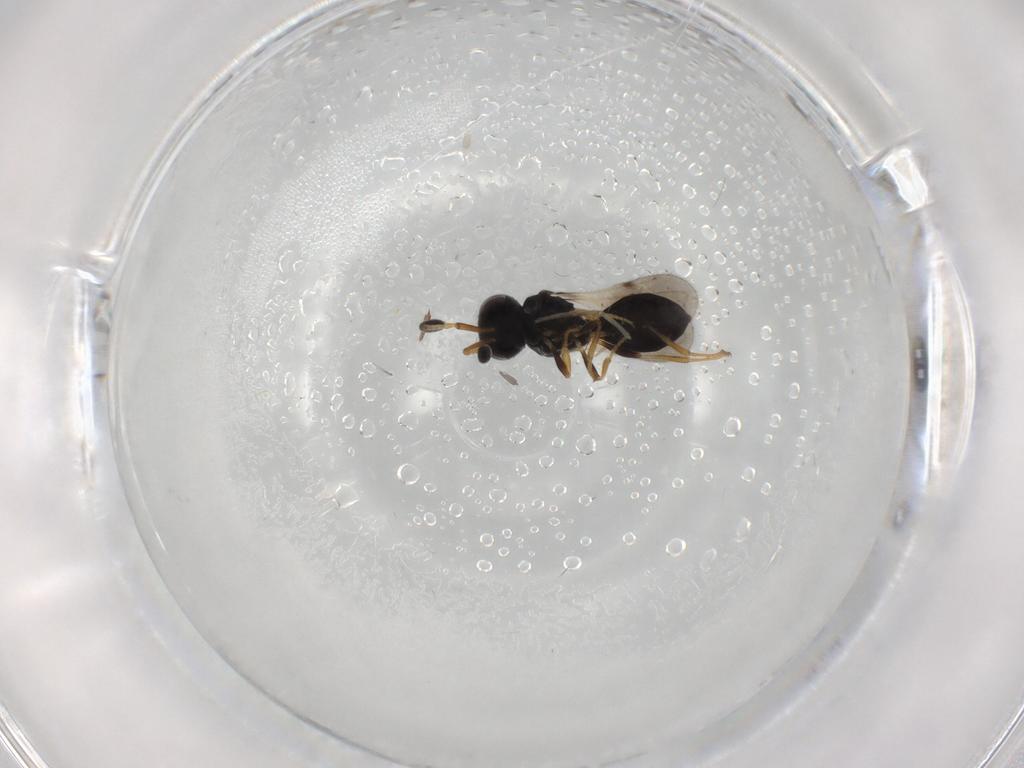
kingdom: Animalia
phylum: Arthropoda
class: Insecta
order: Hymenoptera
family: Scelionidae
